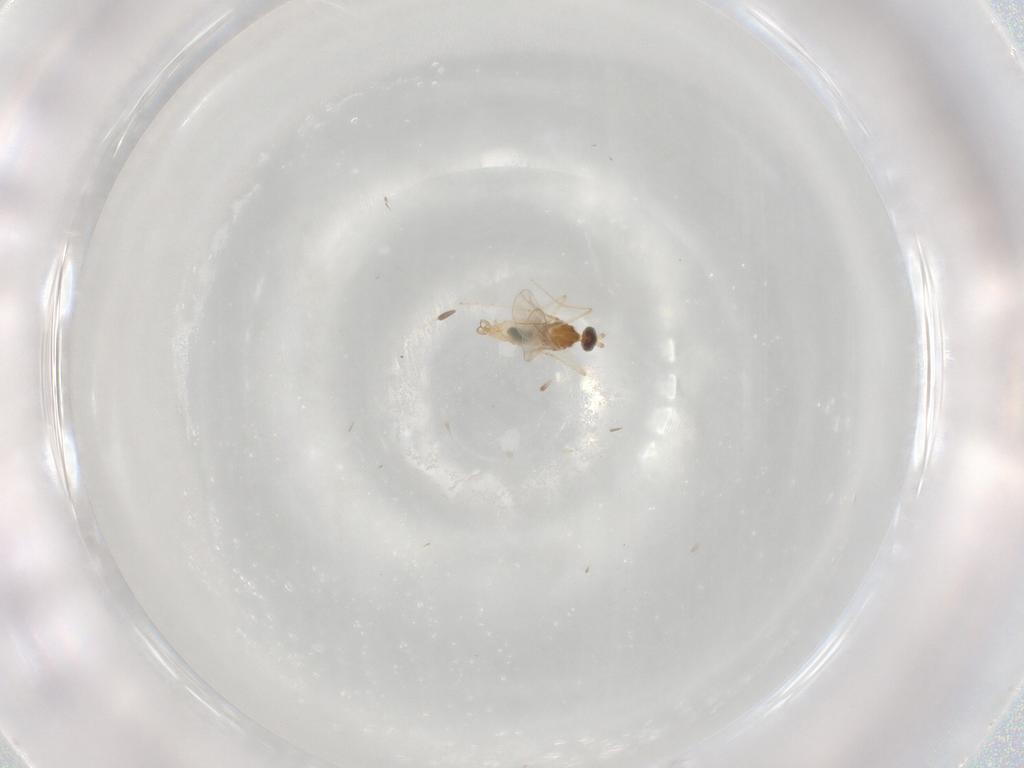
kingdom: Animalia
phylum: Arthropoda
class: Insecta
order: Diptera
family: Cecidomyiidae
